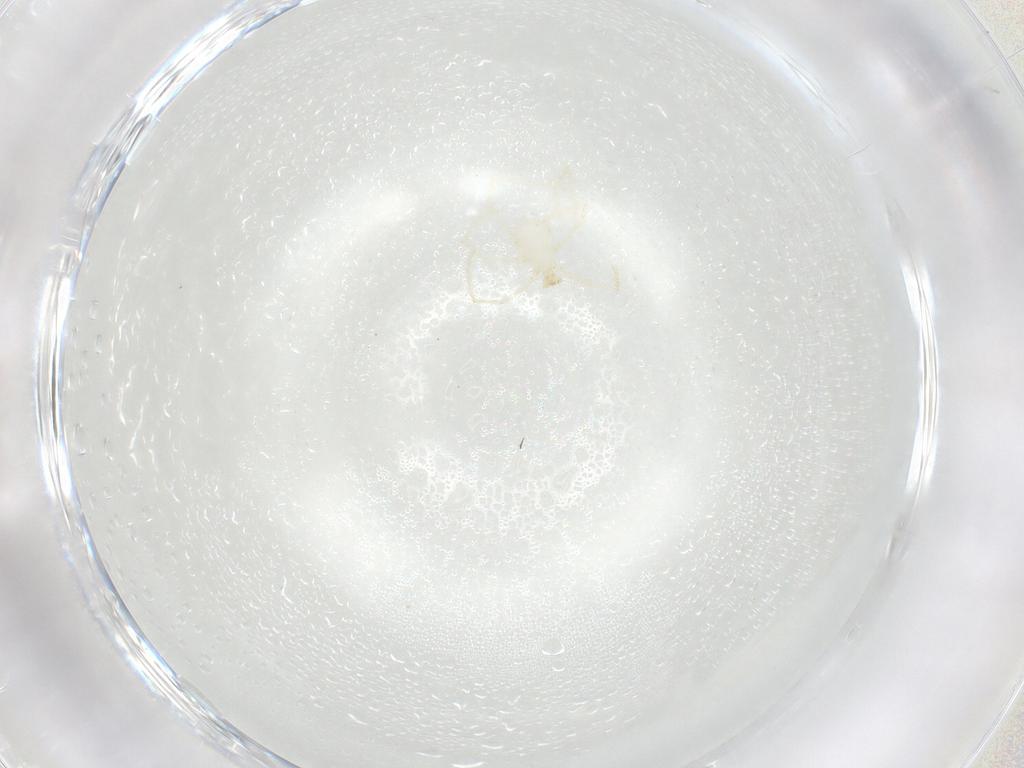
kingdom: Animalia
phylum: Arthropoda
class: Arachnida
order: Trombidiformes
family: Erythraeidae
